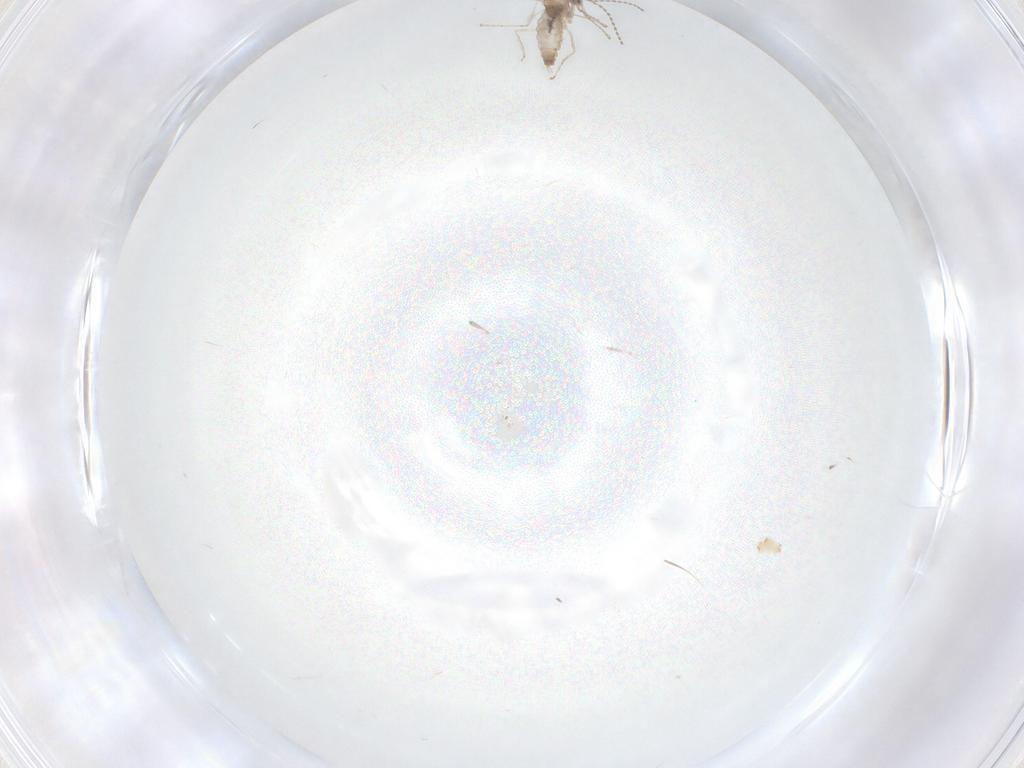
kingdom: Animalia
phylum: Arthropoda
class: Insecta
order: Diptera
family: Cecidomyiidae
